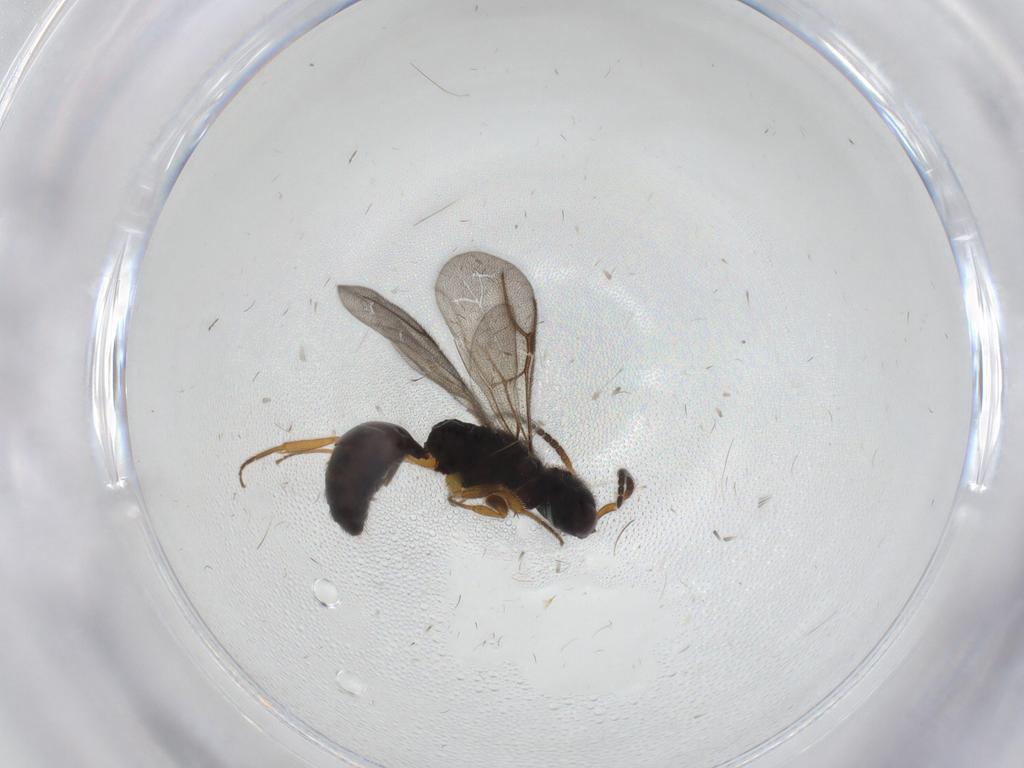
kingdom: Animalia
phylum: Arthropoda
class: Insecta
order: Hymenoptera
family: Bethylidae
